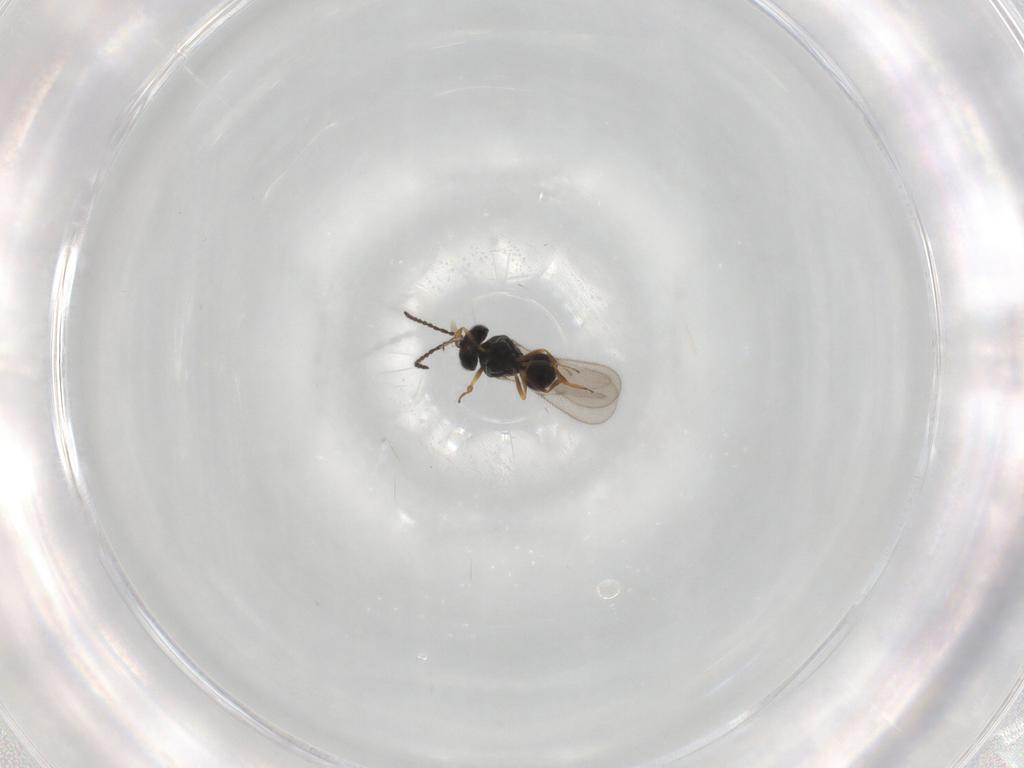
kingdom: Animalia
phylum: Arthropoda
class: Insecta
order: Hymenoptera
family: Scelionidae
